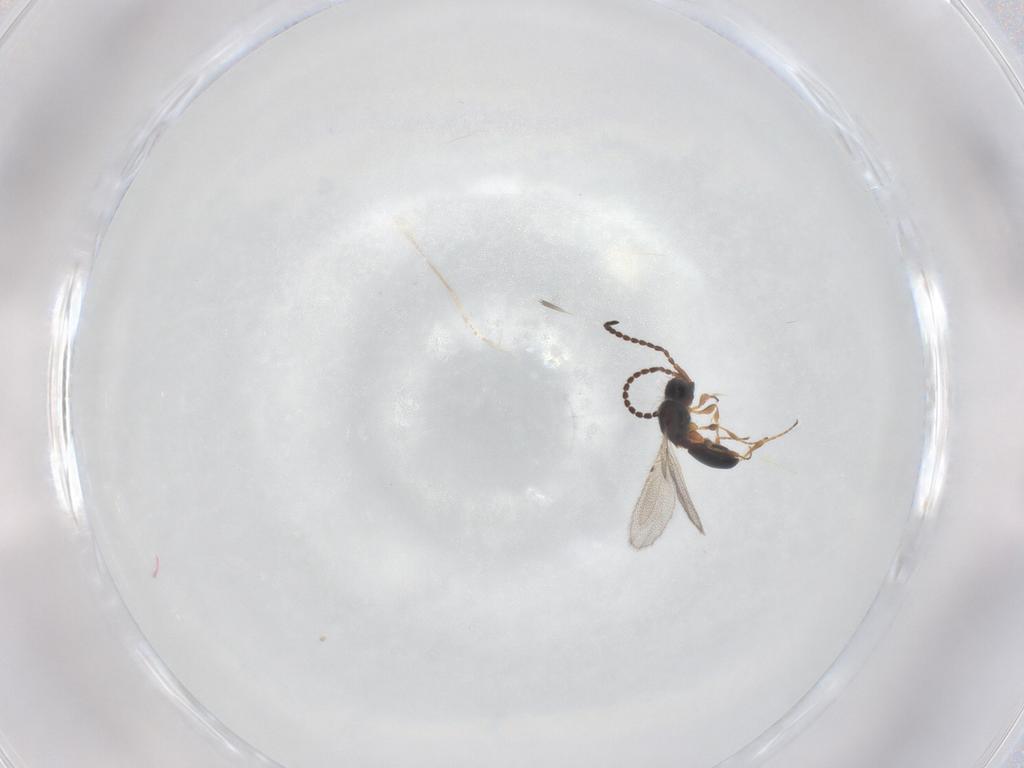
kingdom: Animalia
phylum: Arthropoda
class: Insecta
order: Hymenoptera
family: Diapriidae
